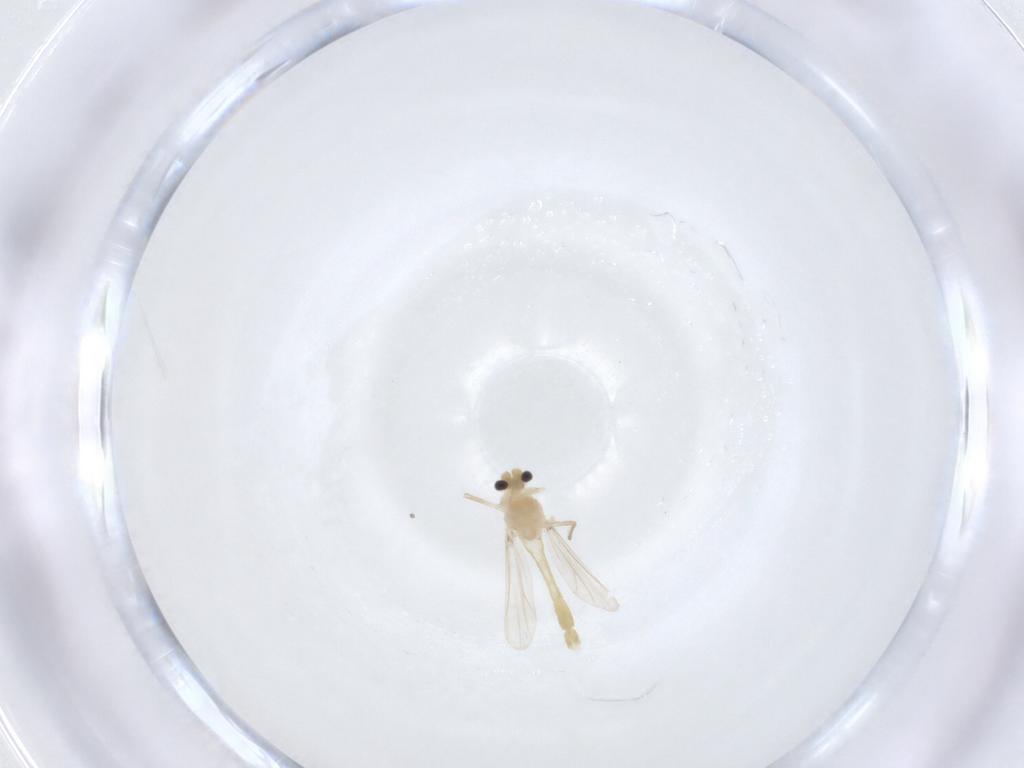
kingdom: Animalia
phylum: Arthropoda
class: Insecta
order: Diptera
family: Chironomidae
